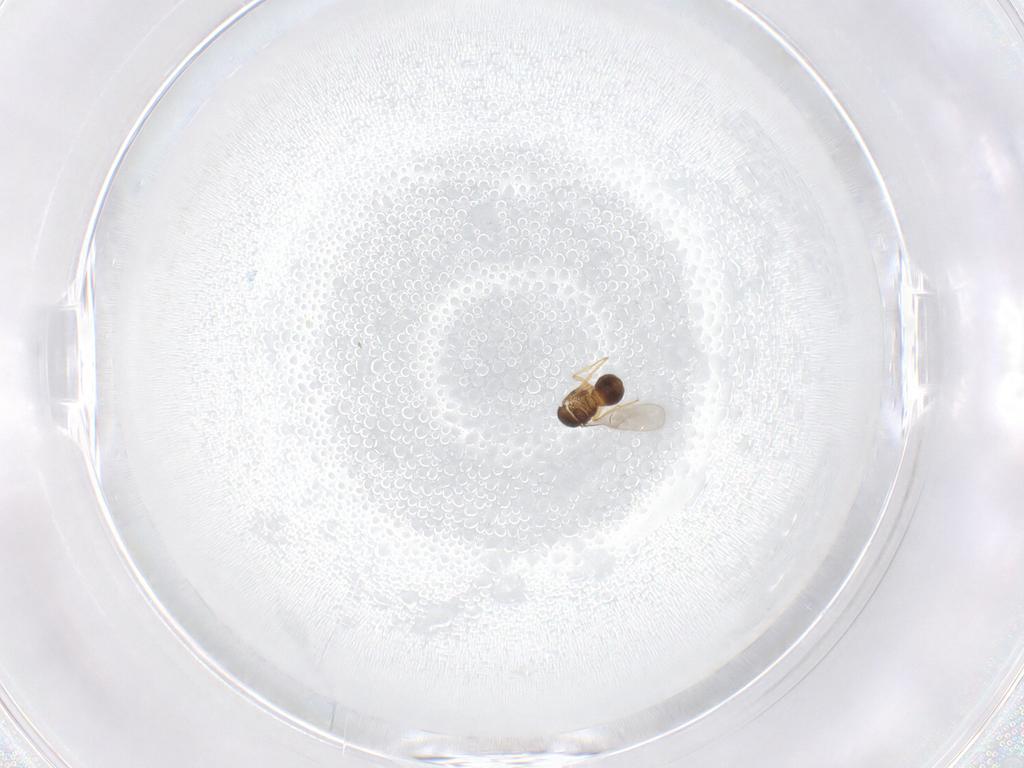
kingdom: Animalia
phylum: Arthropoda
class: Insecta
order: Hymenoptera
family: Scelionidae
